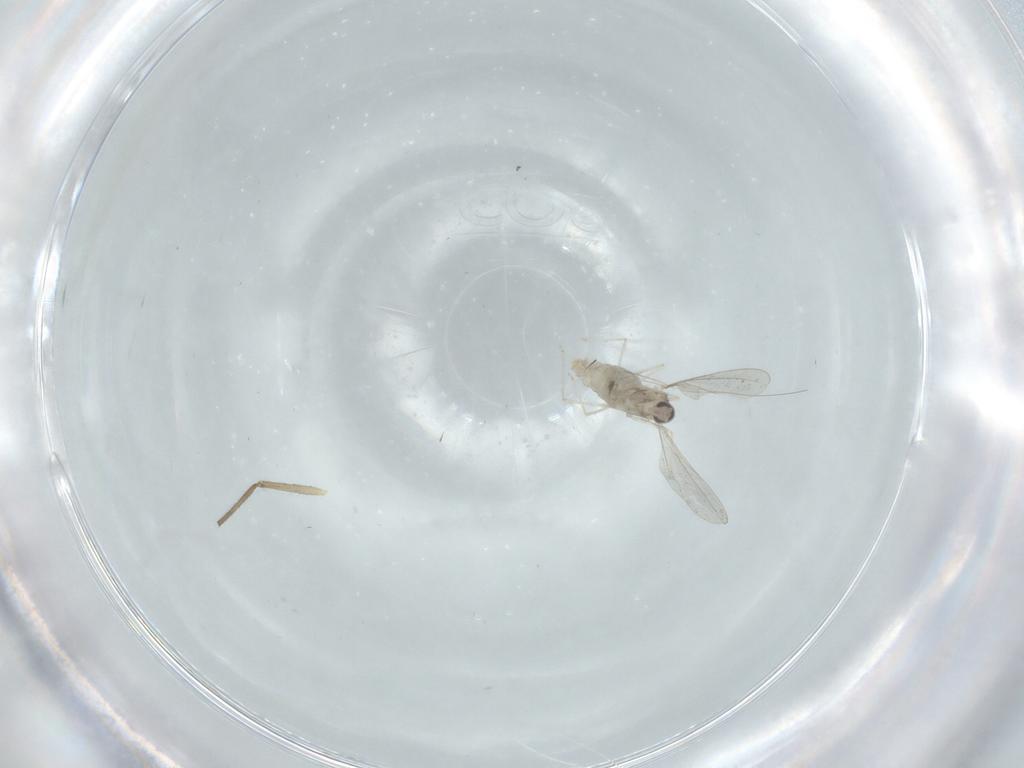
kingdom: Animalia
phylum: Arthropoda
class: Insecta
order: Diptera
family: Chironomidae
